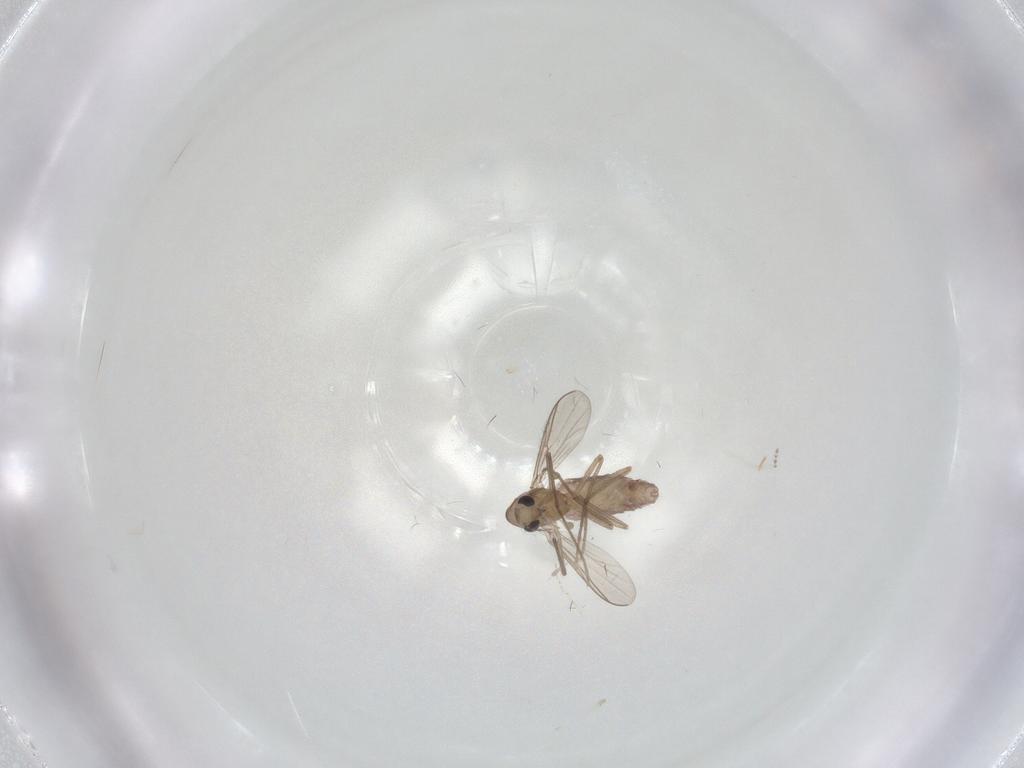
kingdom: Animalia
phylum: Arthropoda
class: Insecta
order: Diptera
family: Chironomidae
